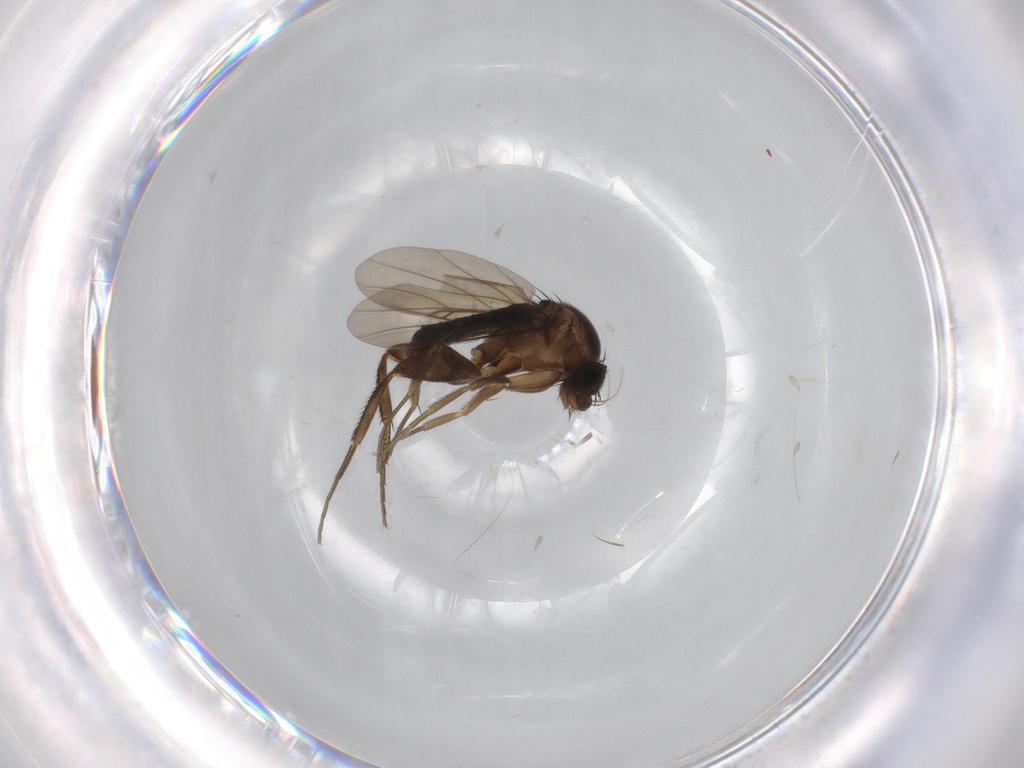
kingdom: Animalia
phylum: Arthropoda
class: Insecta
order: Diptera
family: Phoridae
